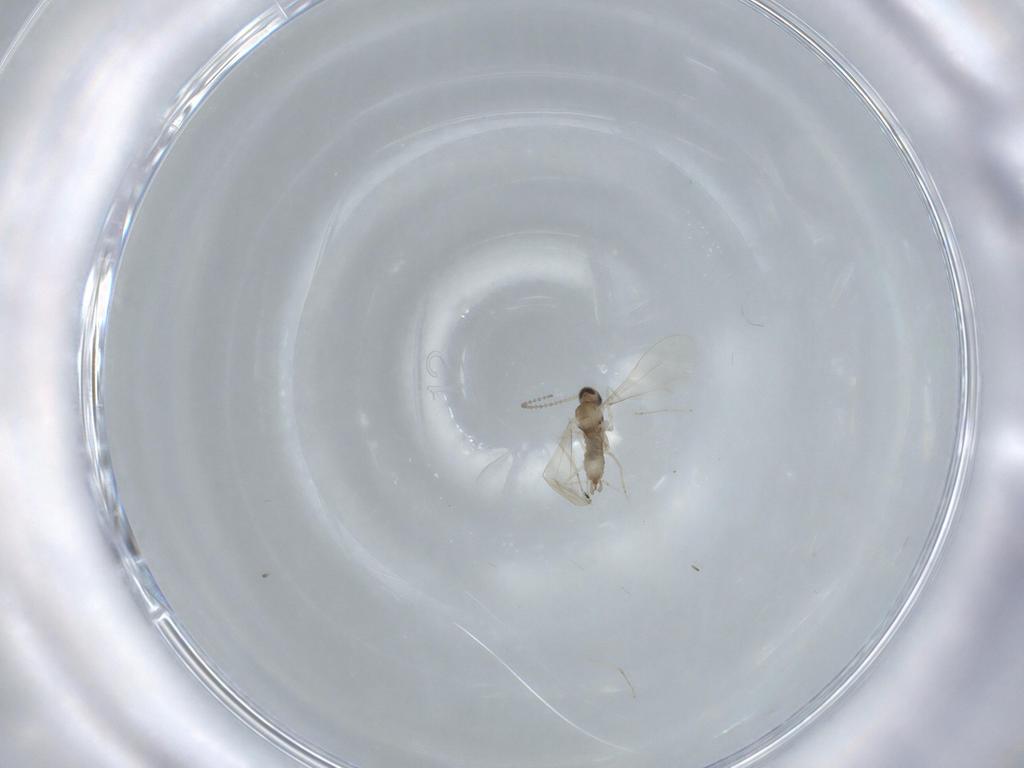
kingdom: Animalia
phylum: Arthropoda
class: Insecta
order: Diptera
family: Cecidomyiidae
